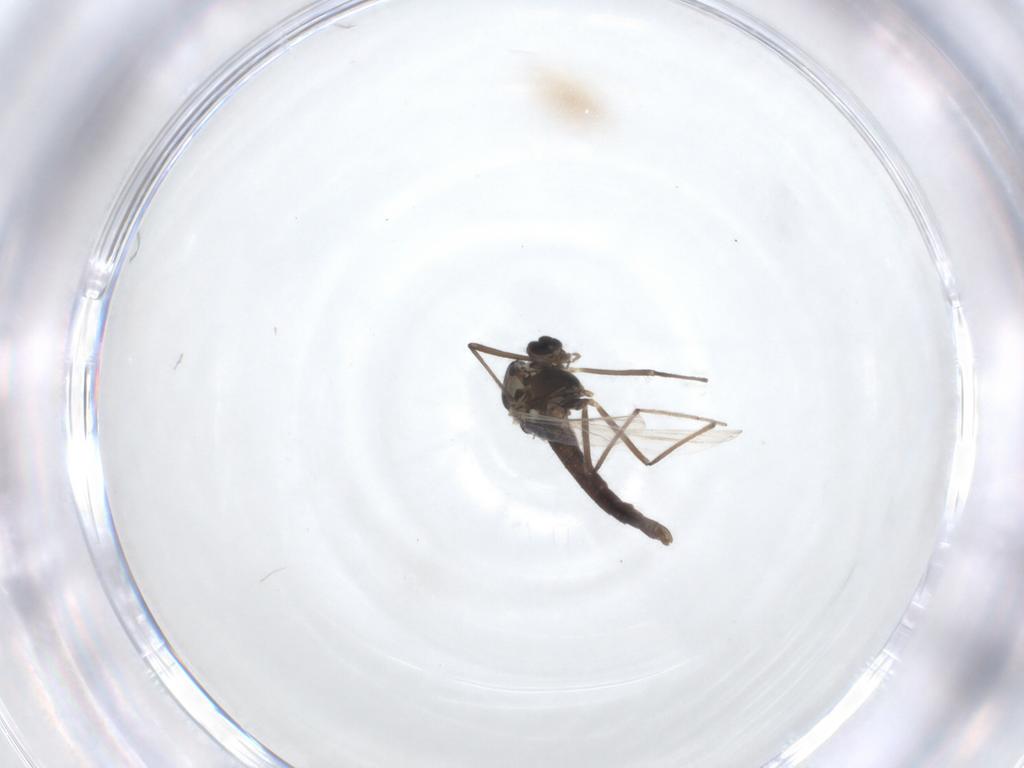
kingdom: Animalia
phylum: Arthropoda
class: Insecta
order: Diptera
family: Chironomidae
